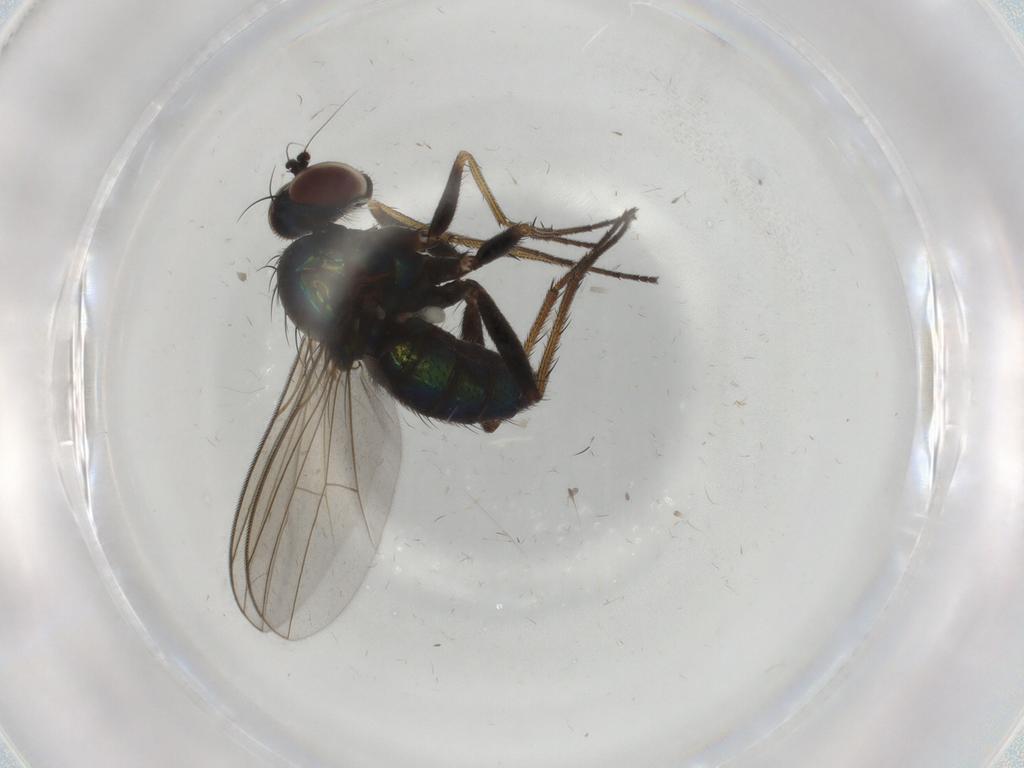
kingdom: Animalia
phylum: Arthropoda
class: Insecta
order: Diptera
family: Dolichopodidae
